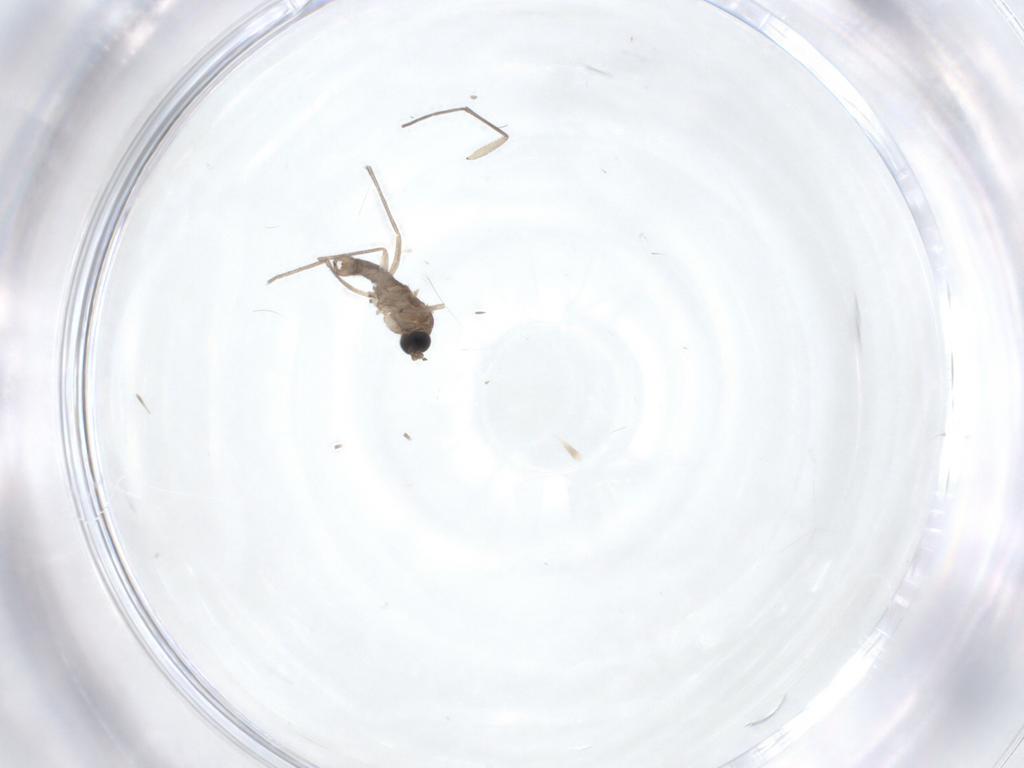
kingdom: Animalia
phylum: Arthropoda
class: Insecta
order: Diptera
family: Sciaridae
